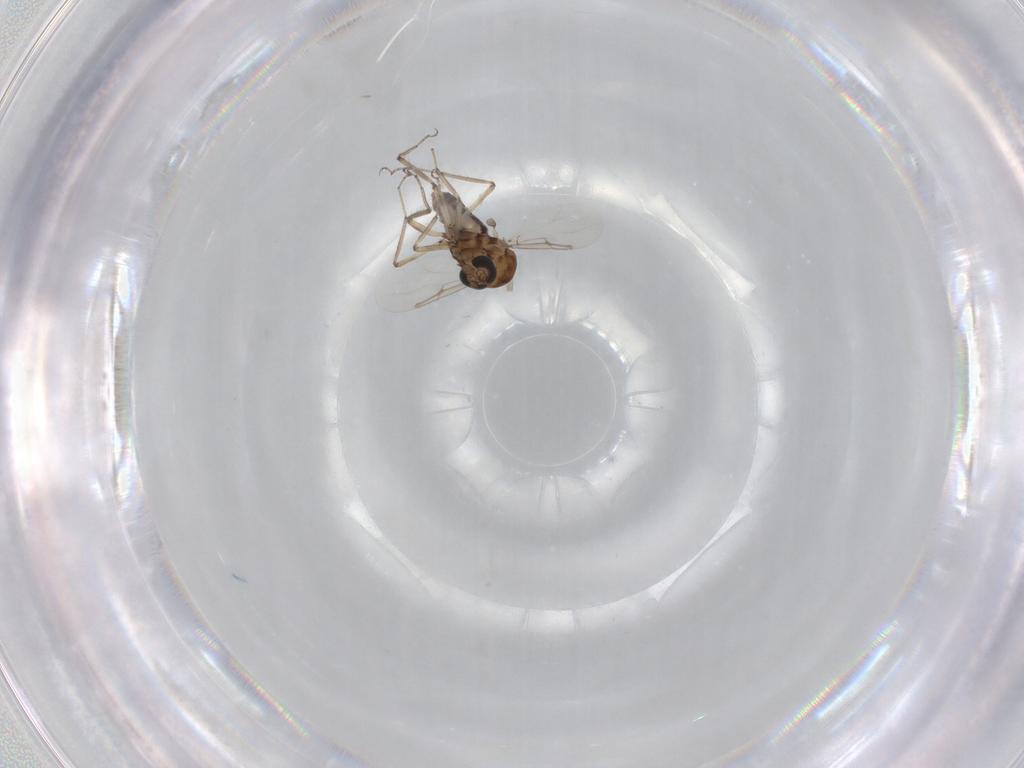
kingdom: Animalia
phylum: Arthropoda
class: Insecta
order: Diptera
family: Ceratopogonidae
